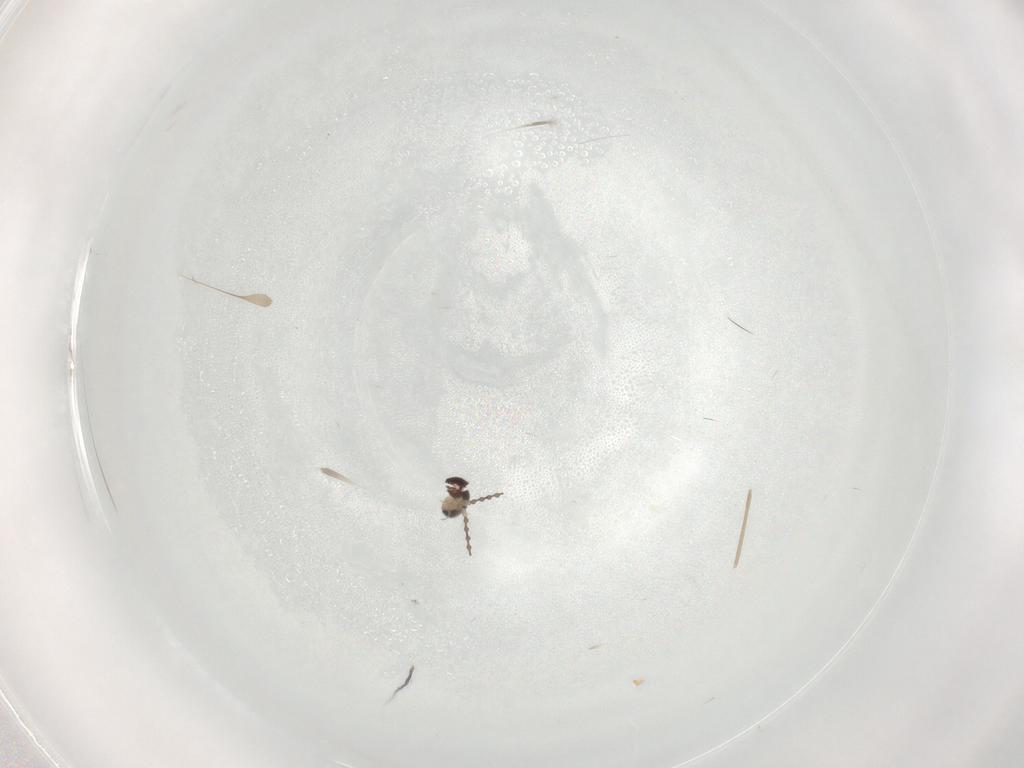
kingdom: Animalia
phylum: Arthropoda
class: Insecta
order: Diptera
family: Cecidomyiidae
